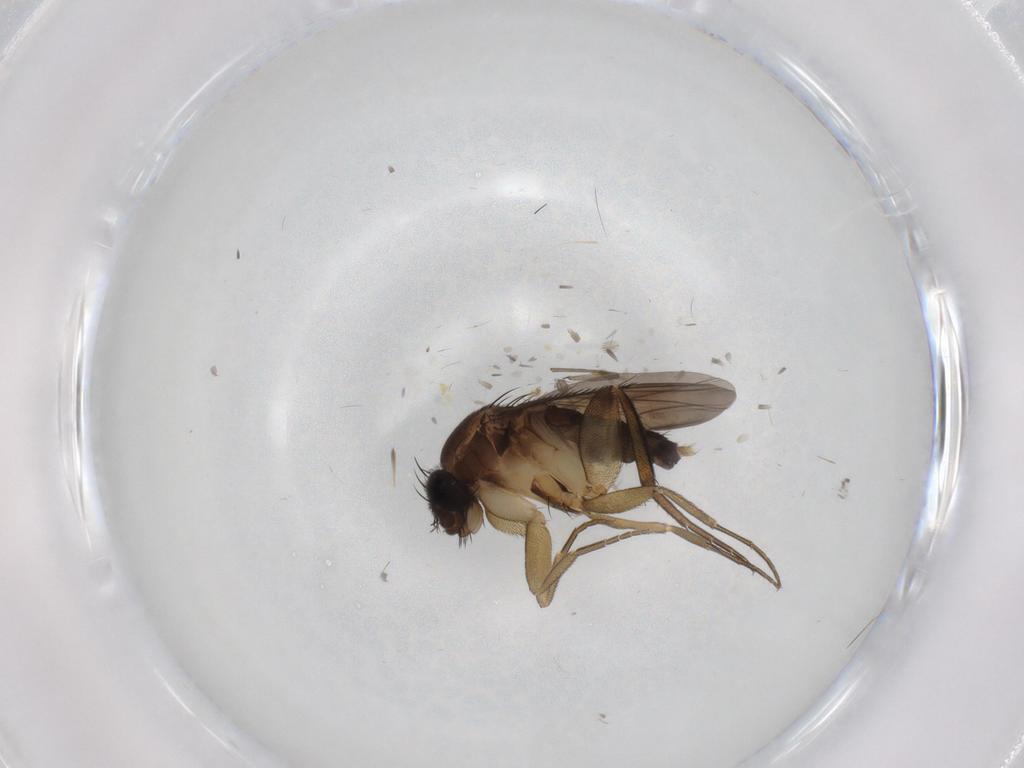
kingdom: Animalia
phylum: Arthropoda
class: Insecta
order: Diptera
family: Phoridae
